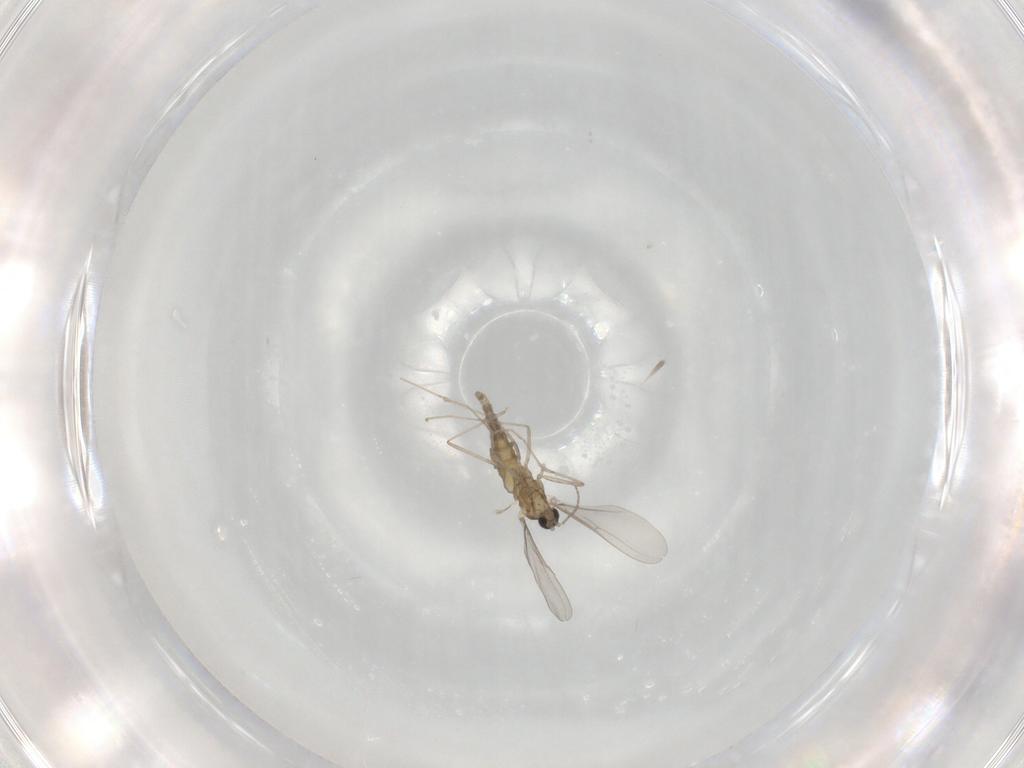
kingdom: Animalia
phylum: Arthropoda
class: Insecta
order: Diptera
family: Cecidomyiidae
